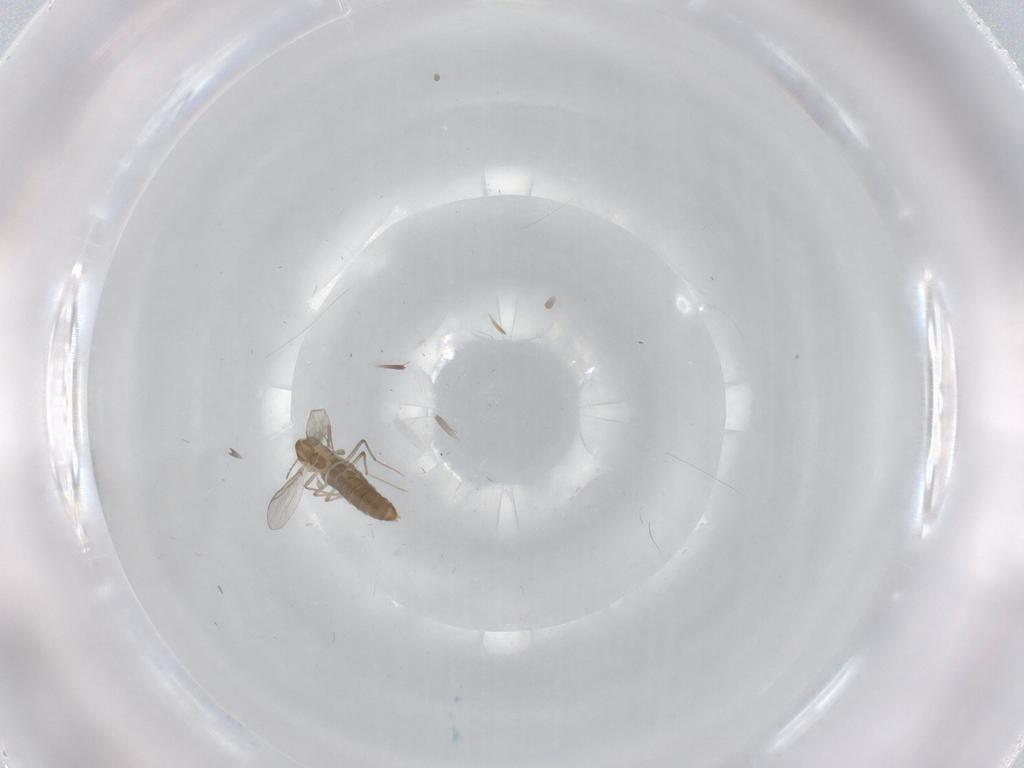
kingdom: Animalia
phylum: Arthropoda
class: Insecta
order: Diptera
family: Chironomidae
